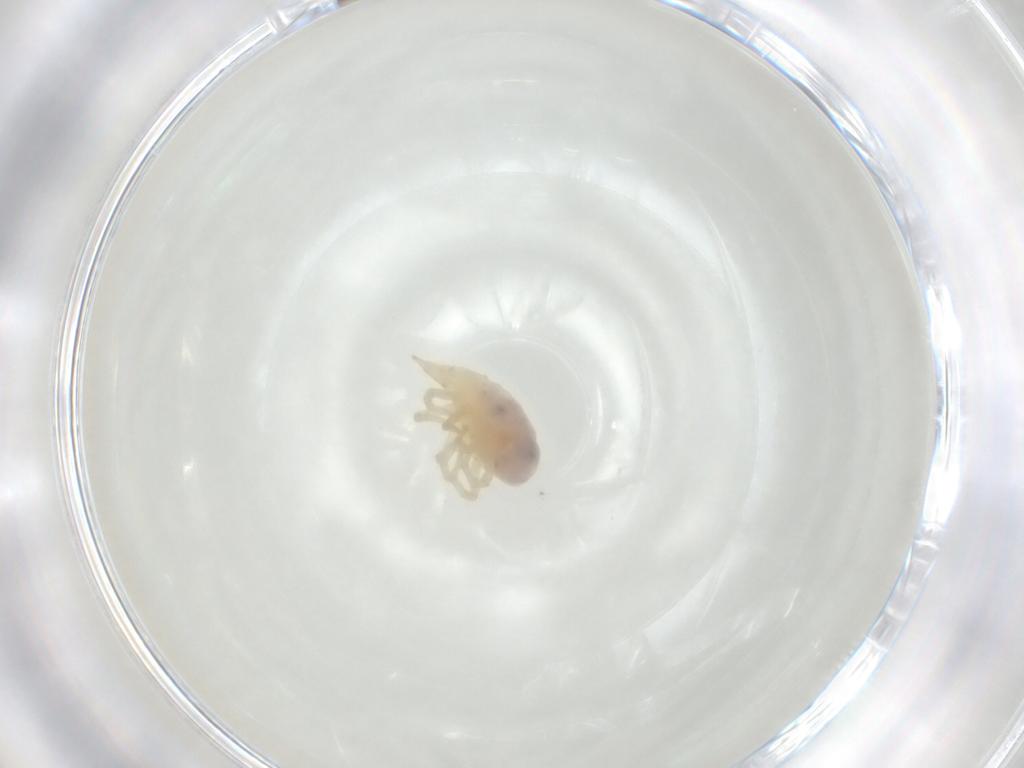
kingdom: Animalia
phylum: Arthropoda
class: Arachnida
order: Trombidiformes
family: Bdellidae
